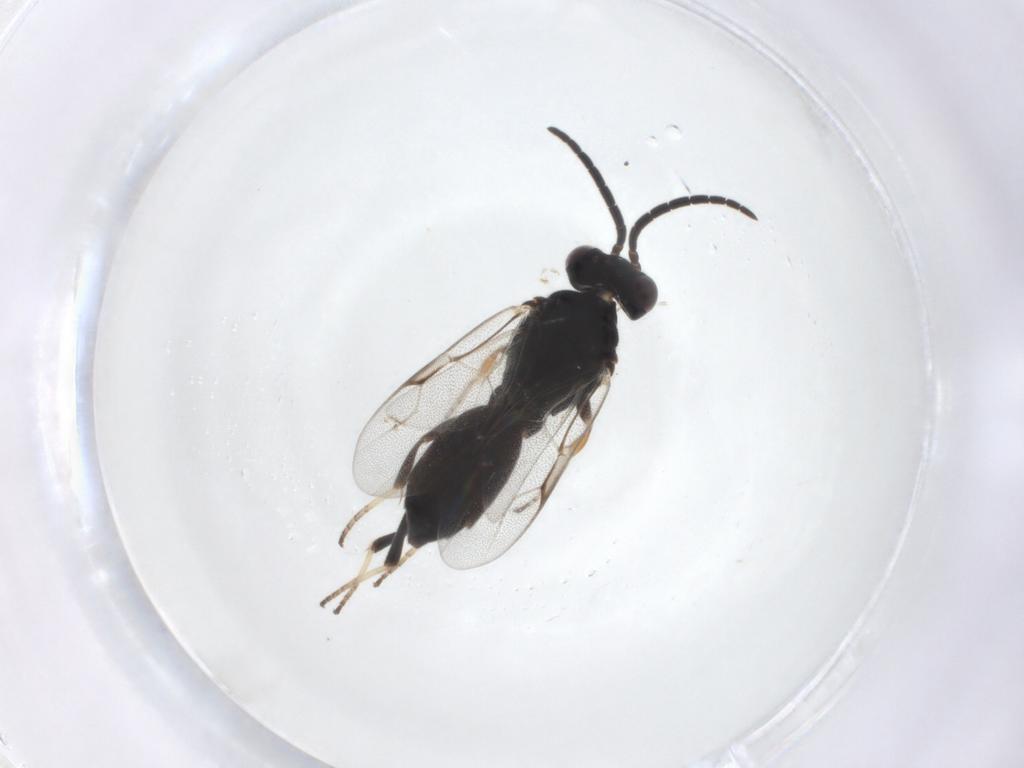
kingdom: Animalia
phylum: Arthropoda
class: Insecta
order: Hymenoptera
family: Dryinidae
